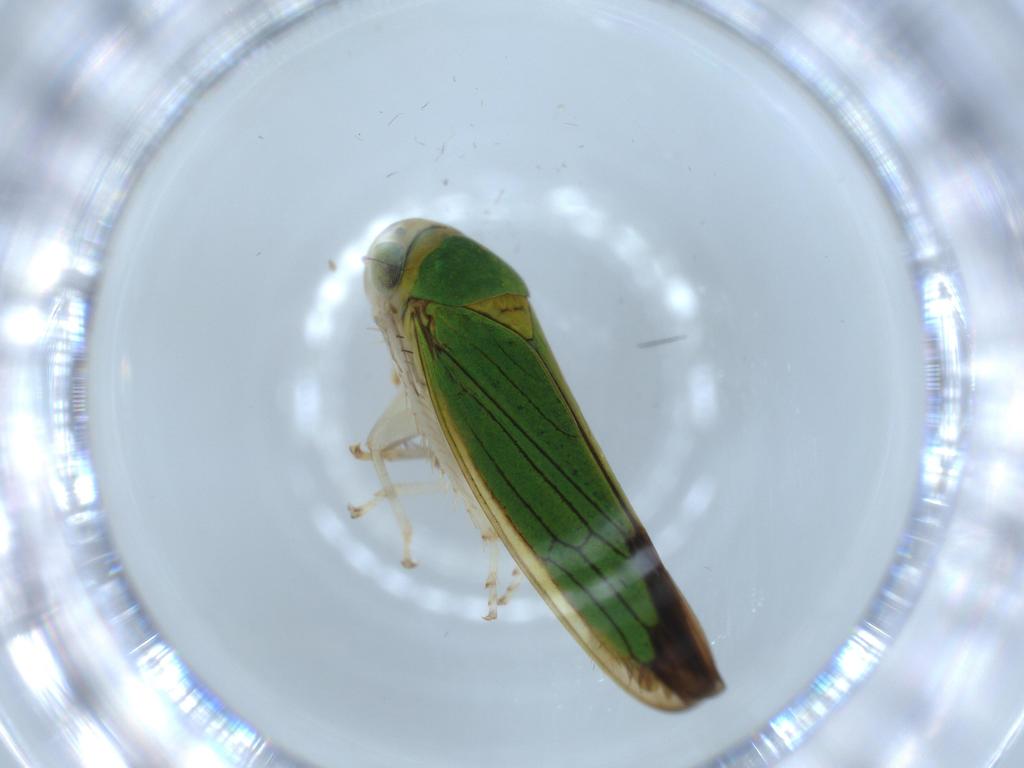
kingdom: Animalia
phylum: Arthropoda
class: Insecta
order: Hemiptera
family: Cicadellidae
